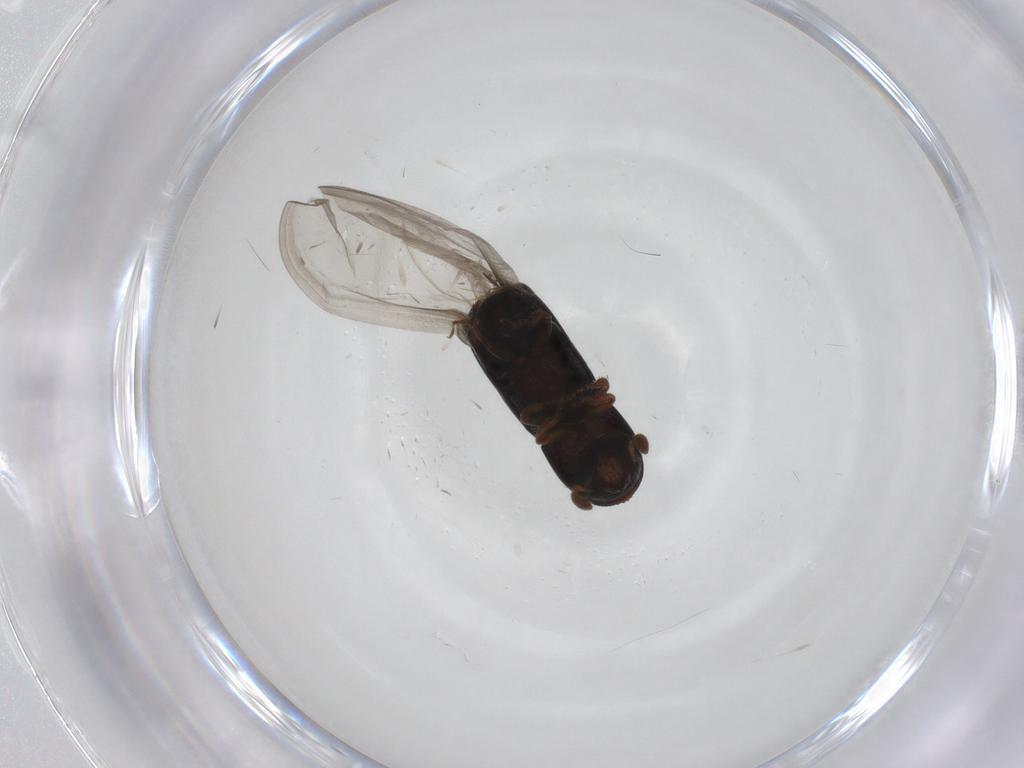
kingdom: Animalia
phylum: Arthropoda
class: Insecta
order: Coleoptera
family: Curculionidae
